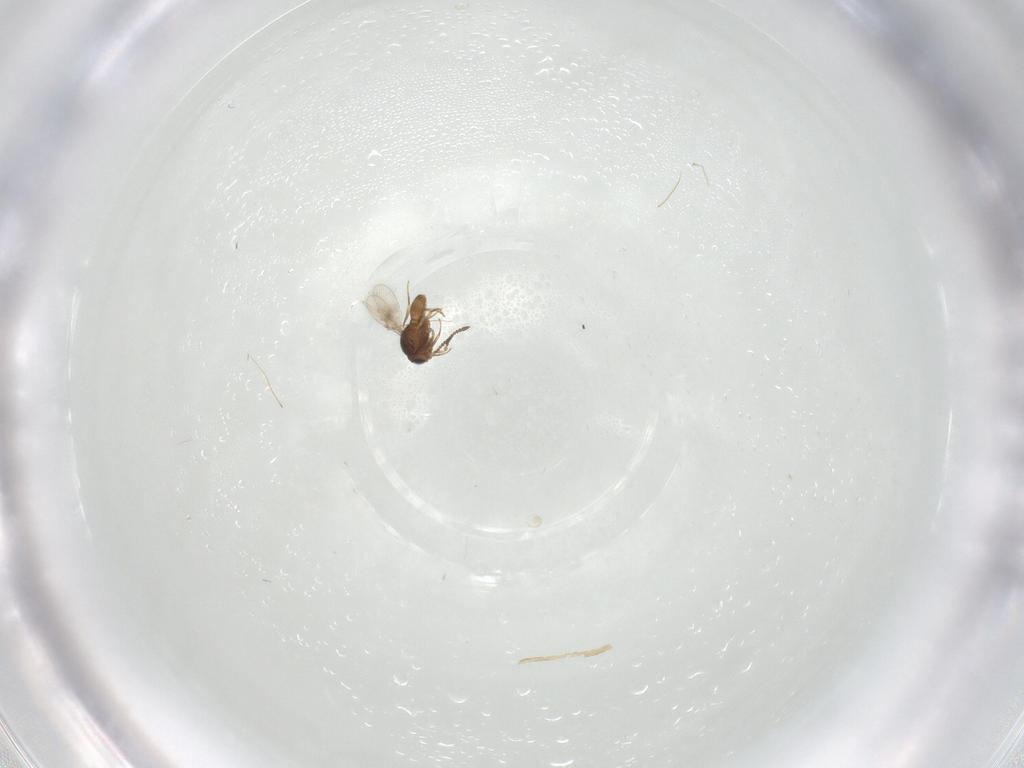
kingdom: Animalia
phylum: Arthropoda
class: Insecta
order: Hymenoptera
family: Scelionidae
